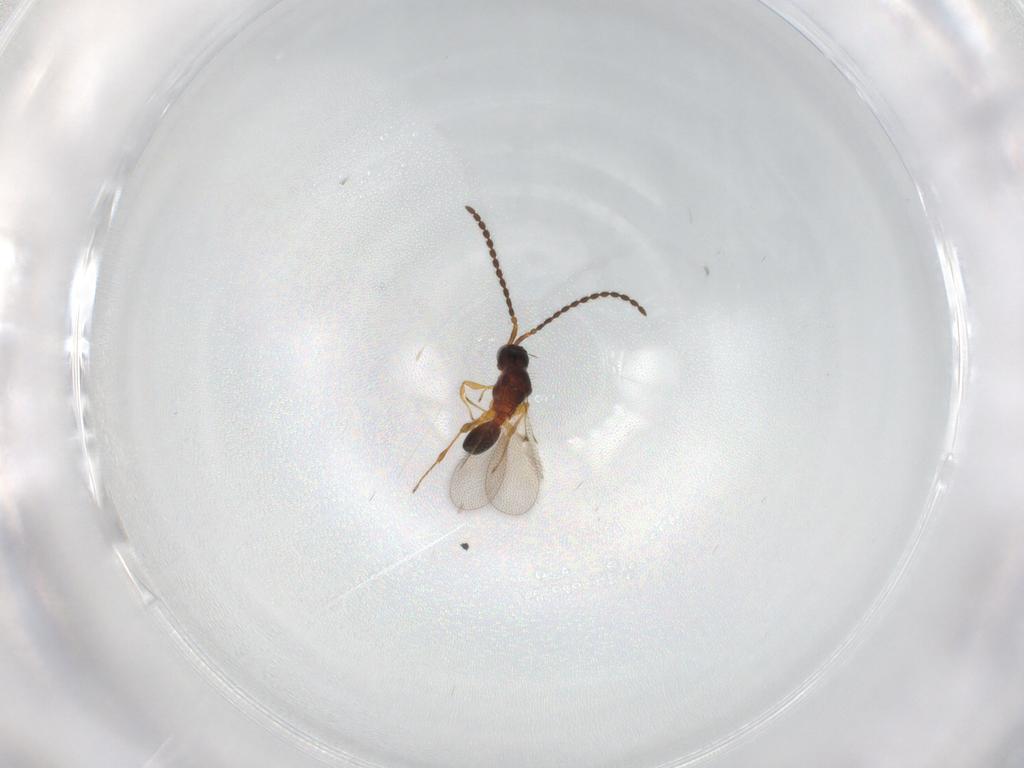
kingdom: Animalia
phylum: Arthropoda
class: Insecta
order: Hymenoptera
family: Diapriidae
